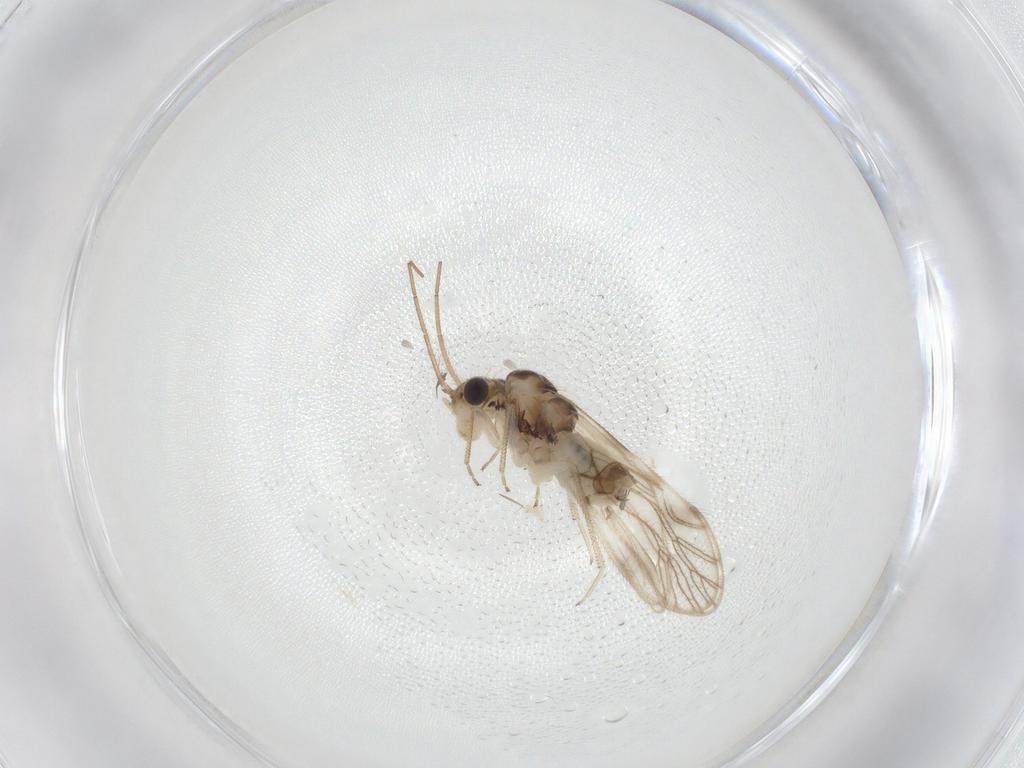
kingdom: Animalia
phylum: Arthropoda
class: Insecta
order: Psocodea
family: Caeciliusidae
